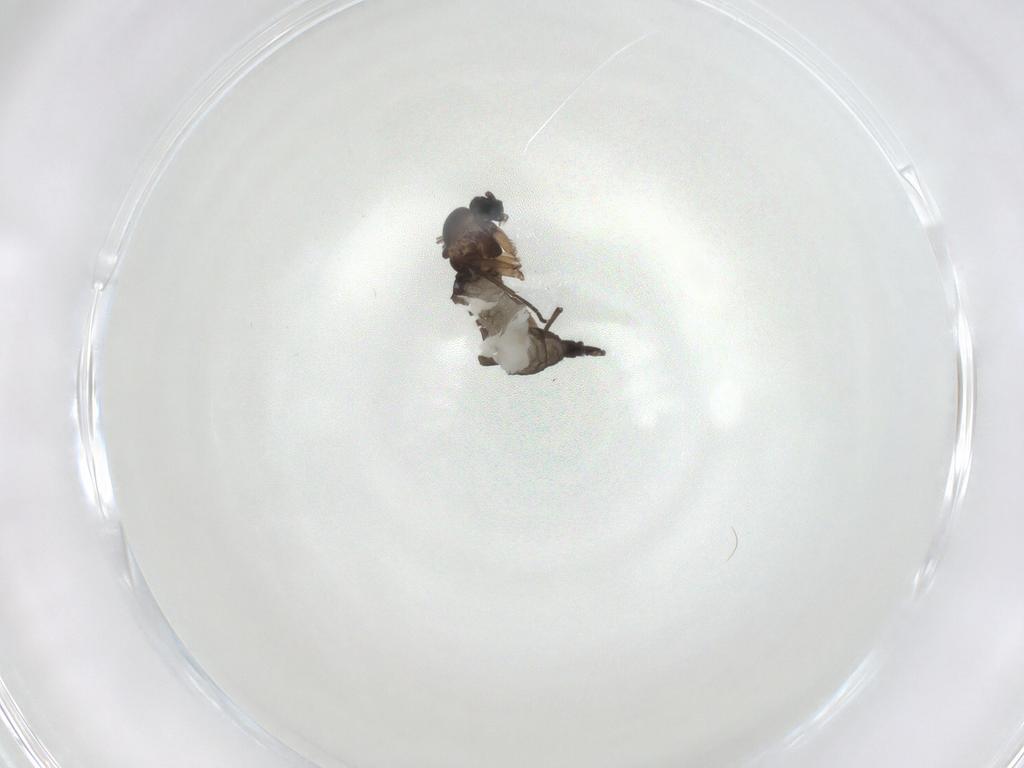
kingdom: Animalia
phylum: Arthropoda
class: Insecta
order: Diptera
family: Sciaridae
